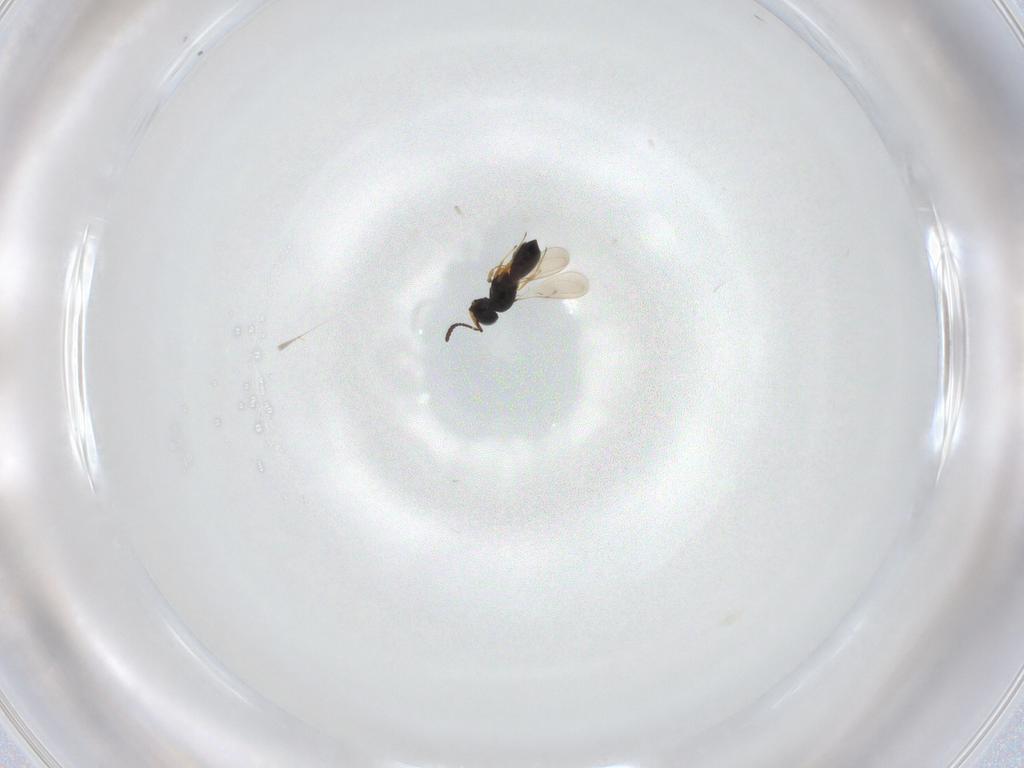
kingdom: Animalia
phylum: Arthropoda
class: Insecta
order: Hymenoptera
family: Scelionidae
